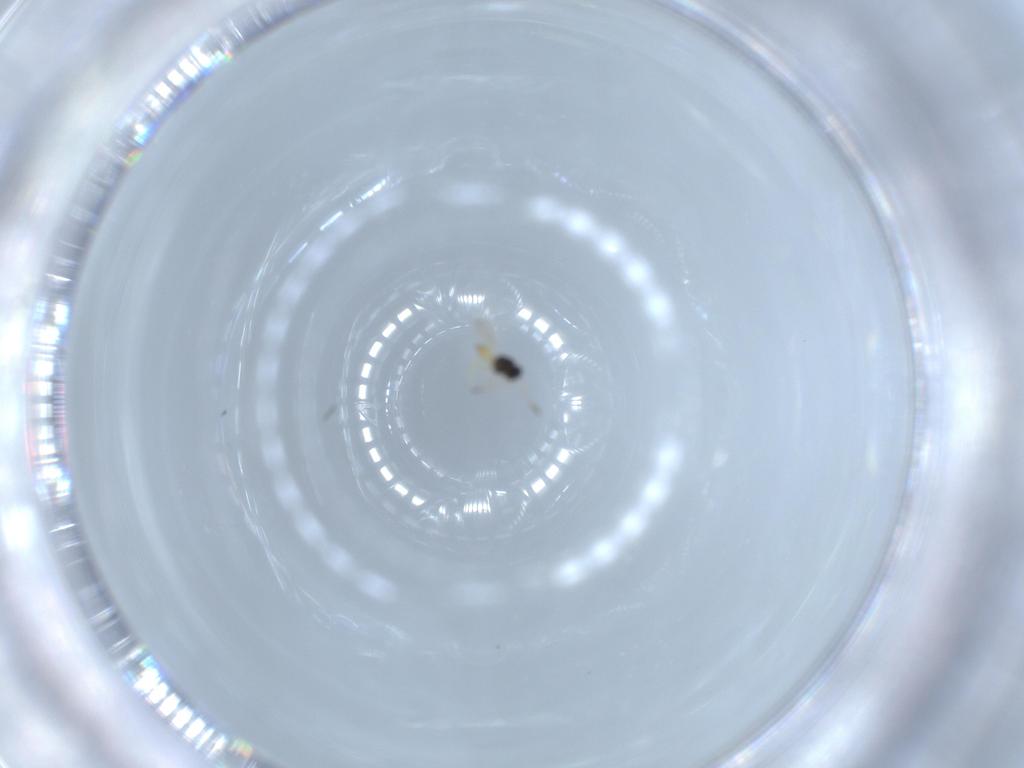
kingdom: Animalia
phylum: Arthropoda
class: Insecta
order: Hymenoptera
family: Scelionidae
